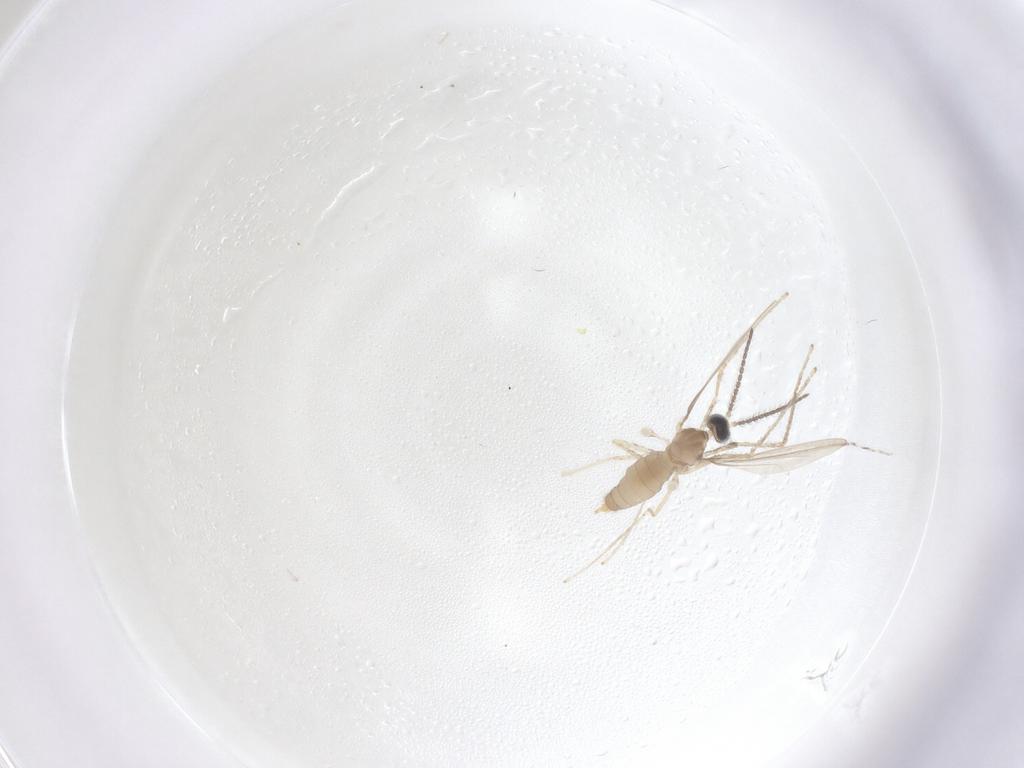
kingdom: Animalia
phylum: Arthropoda
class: Insecta
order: Diptera
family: Cecidomyiidae
